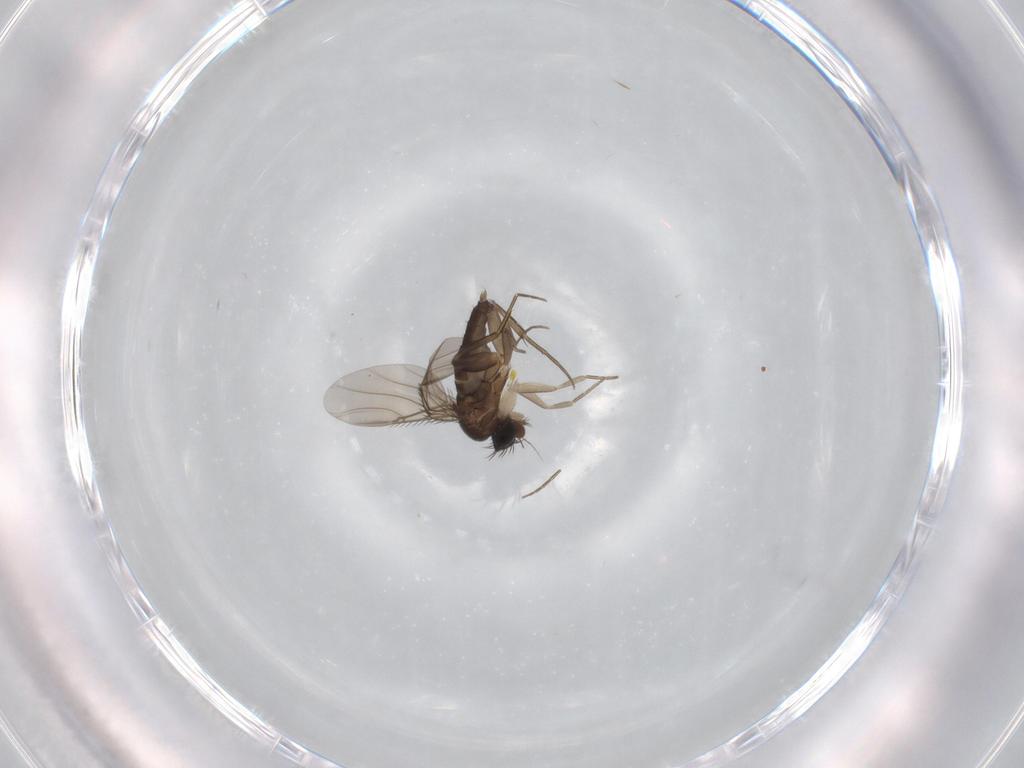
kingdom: Animalia
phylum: Arthropoda
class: Insecta
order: Diptera
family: Phoridae
